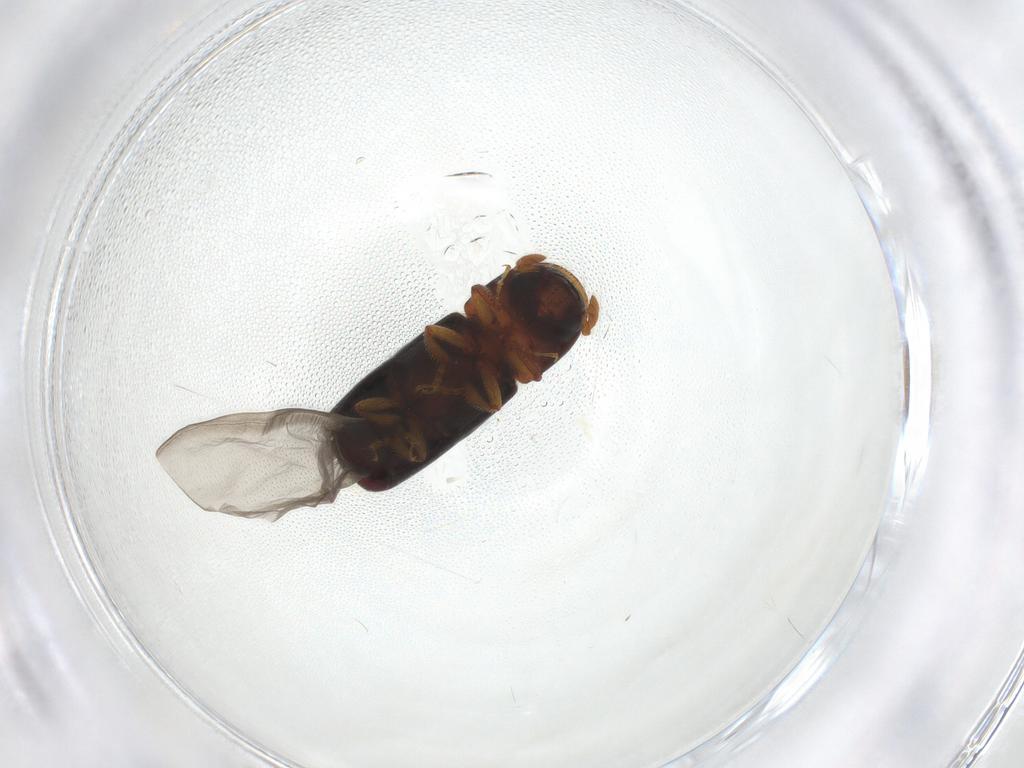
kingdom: Animalia
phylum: Arthropoda
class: Insecta
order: Coleoptera
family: Curculionidae
